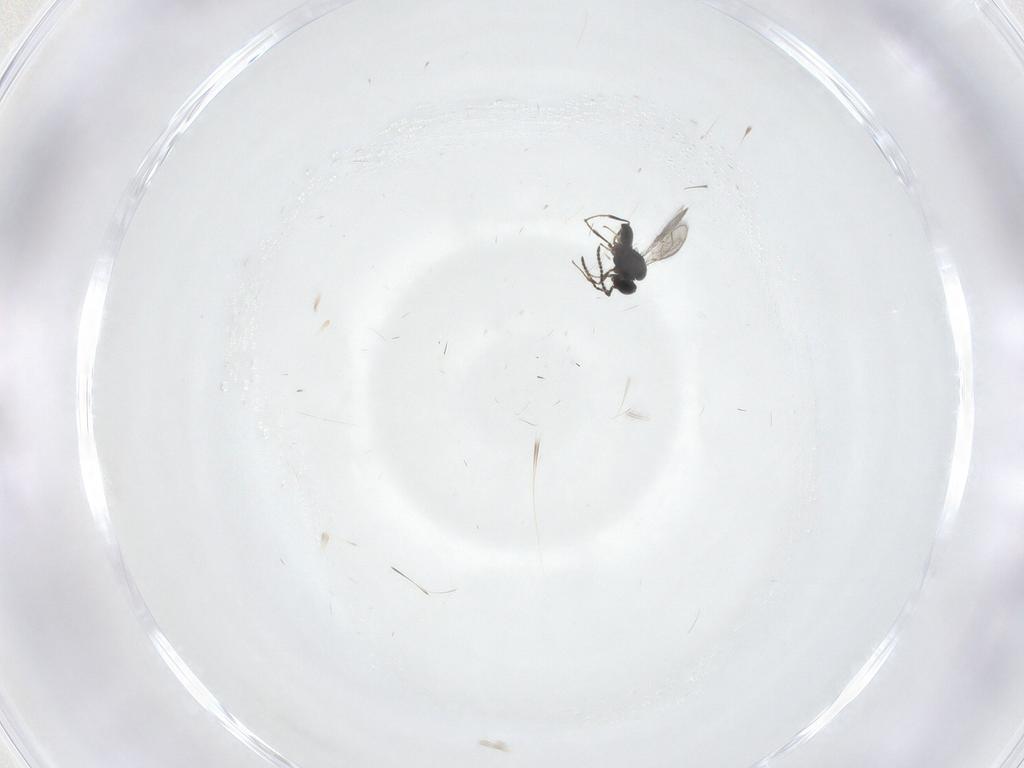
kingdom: Animalia
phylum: Arthropoda
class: Insecta
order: Hymenoptera
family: Scelionidae
